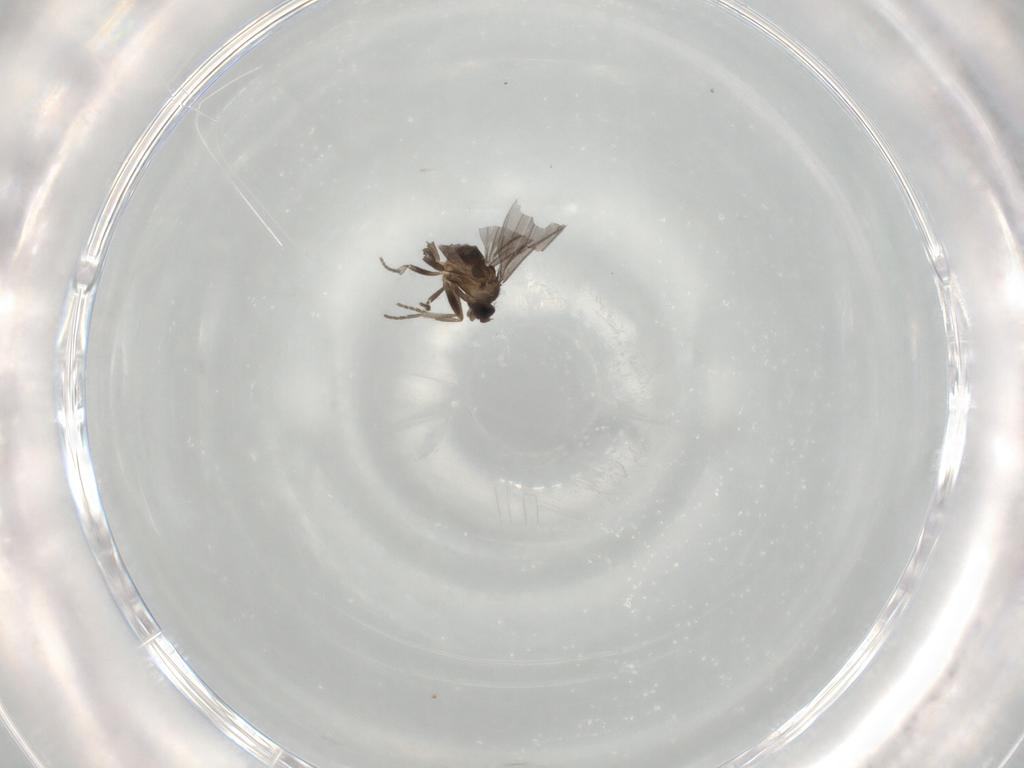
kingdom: Animalia
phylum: Arthropoda
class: Insecta
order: Diptera
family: Phoridae
